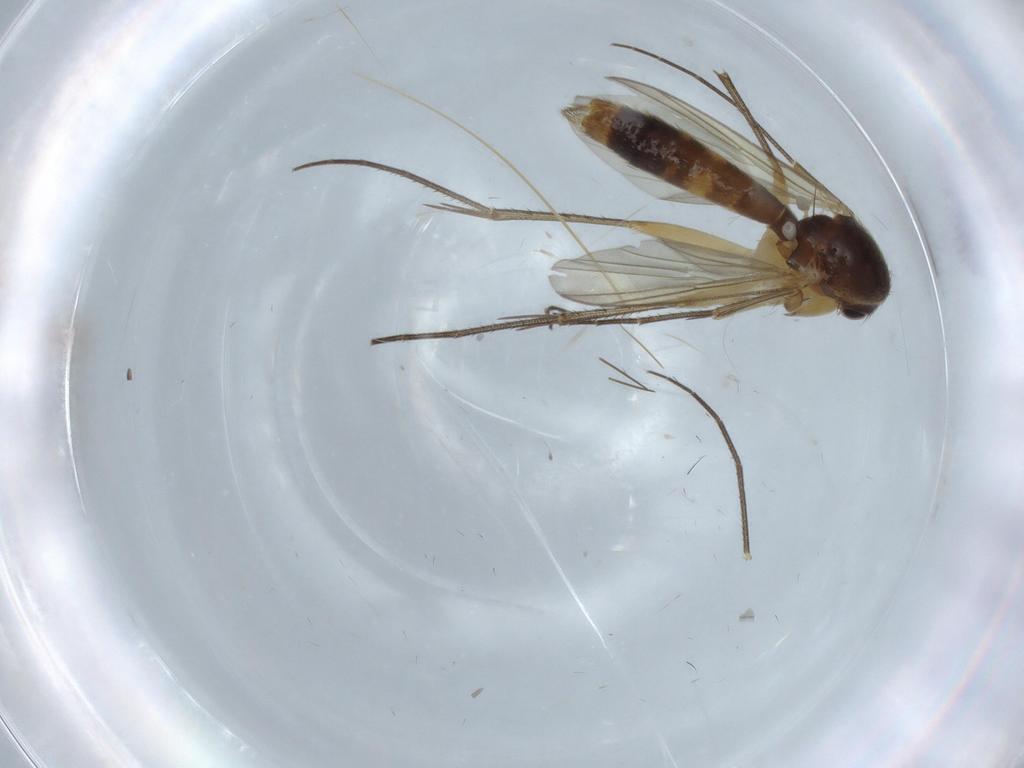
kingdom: Animalia
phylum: Arthropoda
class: Insecta
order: Diptera
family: Mycetophilidae
